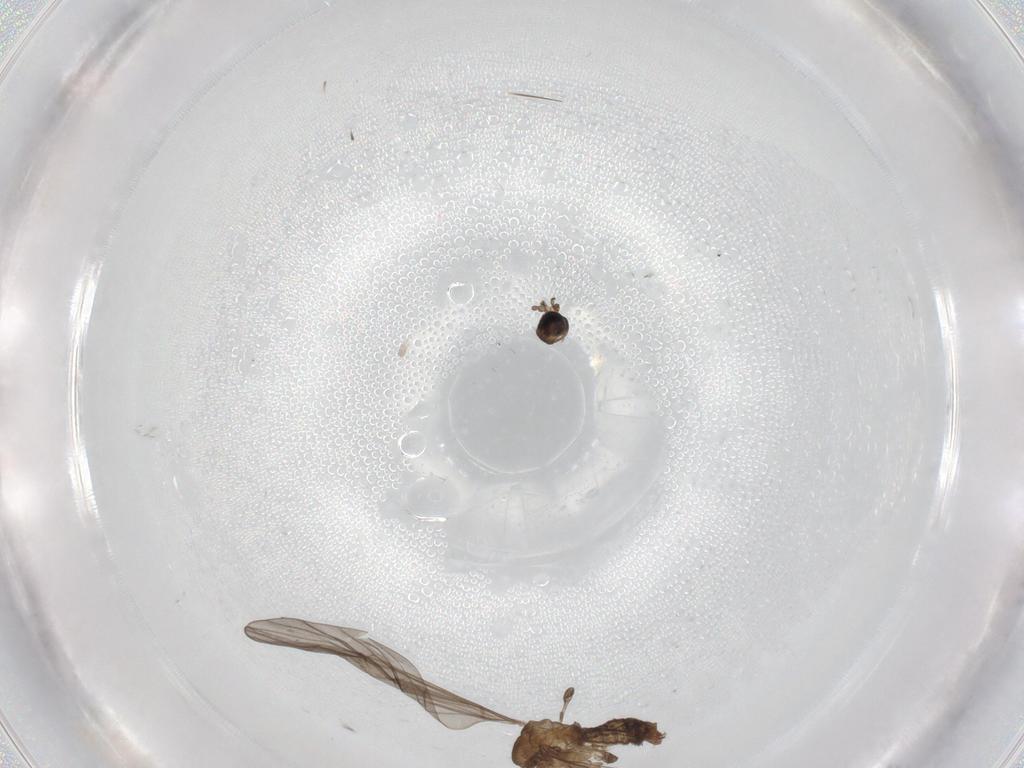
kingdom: Animalia
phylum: Arthropoda
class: Insecta
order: Diptera
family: Limoniidae
